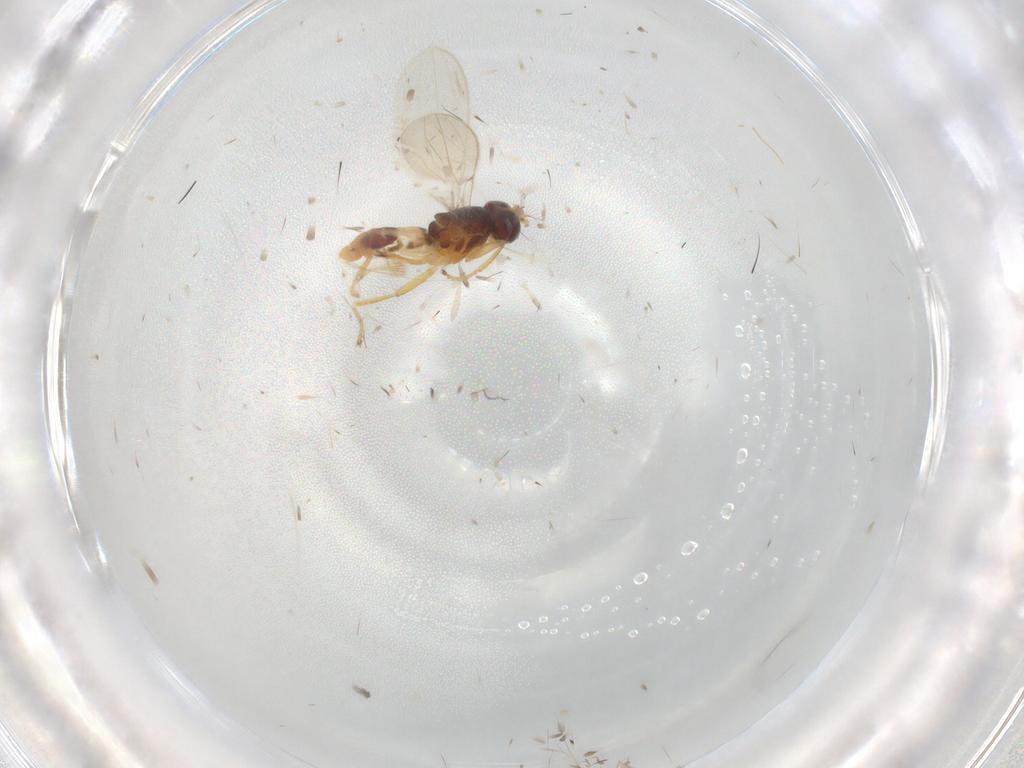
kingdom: Animalia
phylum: Arthropoda
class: Insecta
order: Diptera
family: Periscelididae
